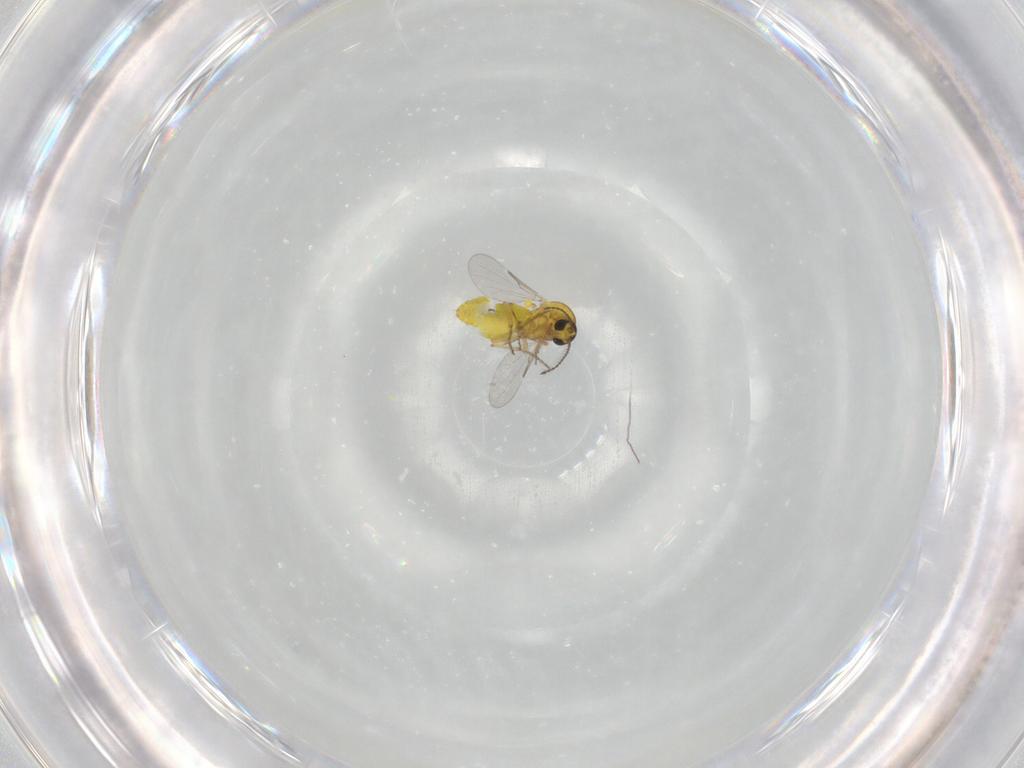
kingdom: Animalia
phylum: Arthropoda
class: Insecta
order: Diptera
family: Ceratopogonidae
